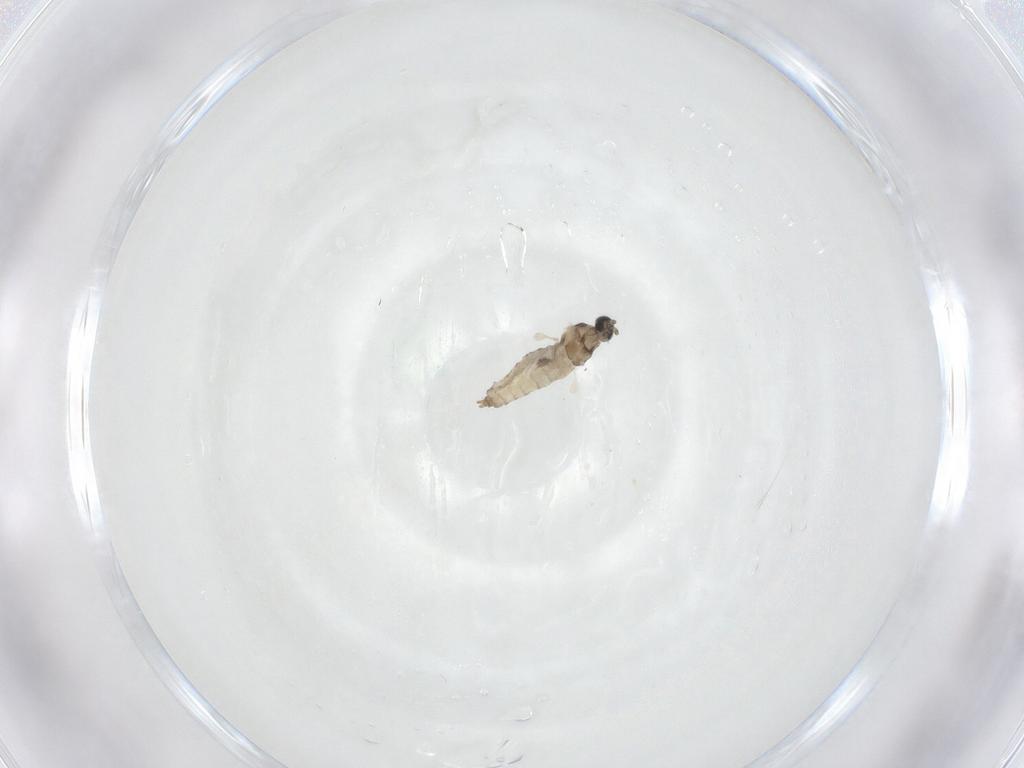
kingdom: Animalia
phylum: Arthropoda
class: Insecta
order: Diptera
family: Cecidomyiidae
